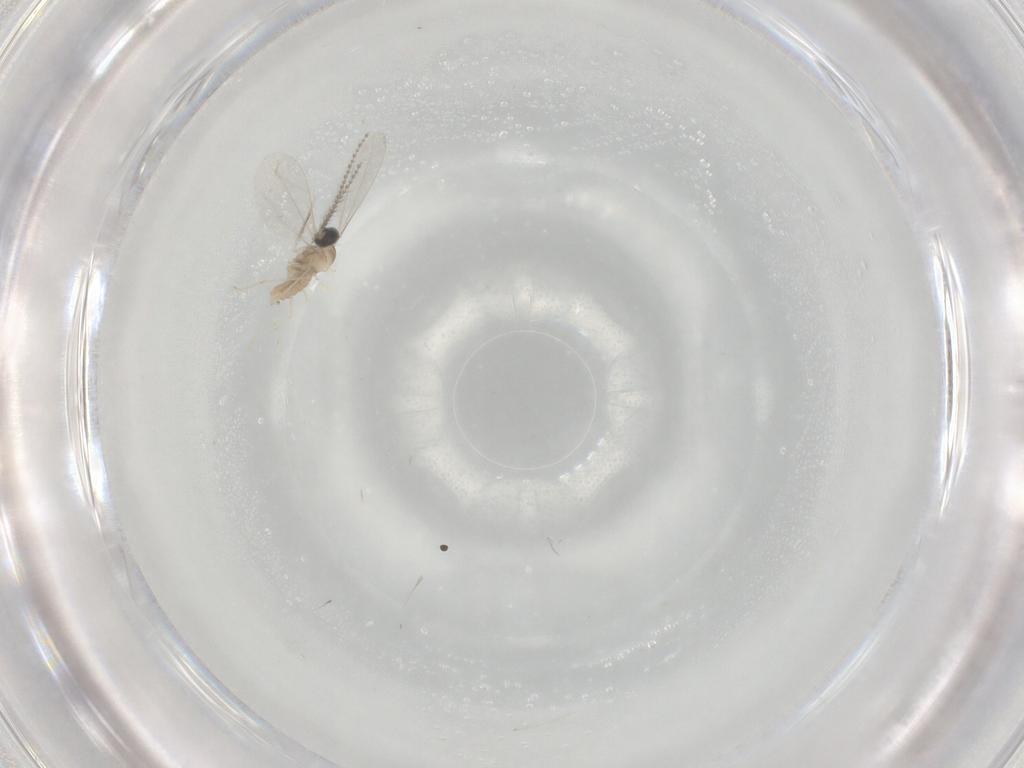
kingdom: Animalia
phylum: Arthropoda
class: Insecta
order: Diptera
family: Cecidomyiidae
